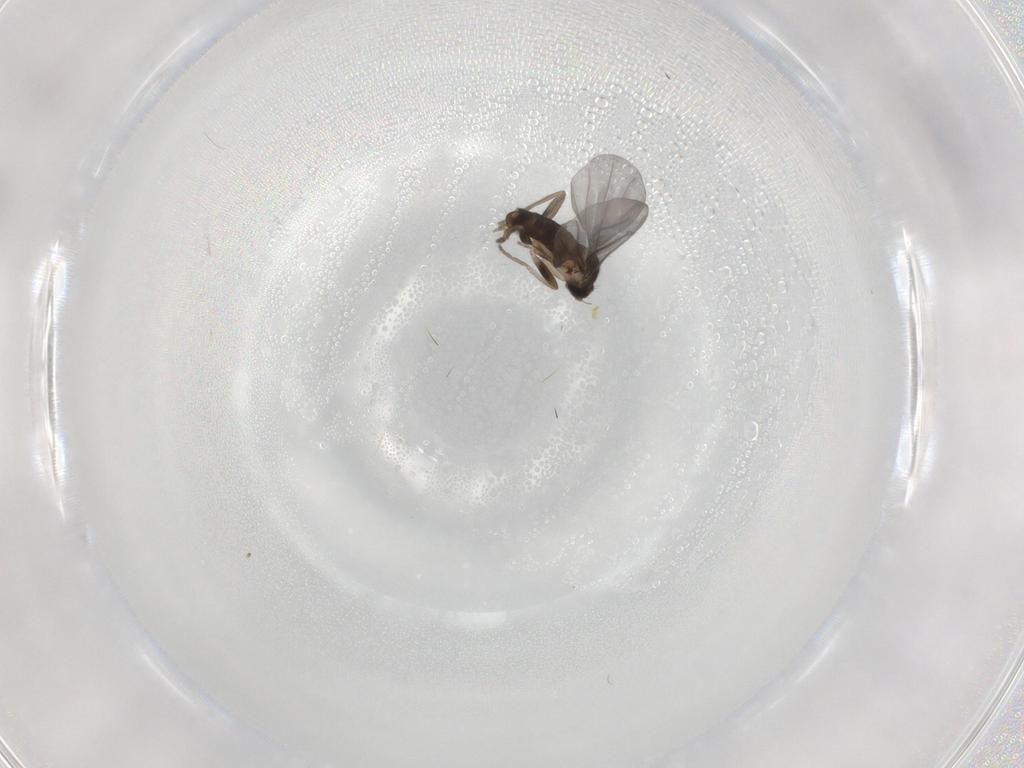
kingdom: Animalia
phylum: Arthropoda
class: Insecta
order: Diptera
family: Phoridae
